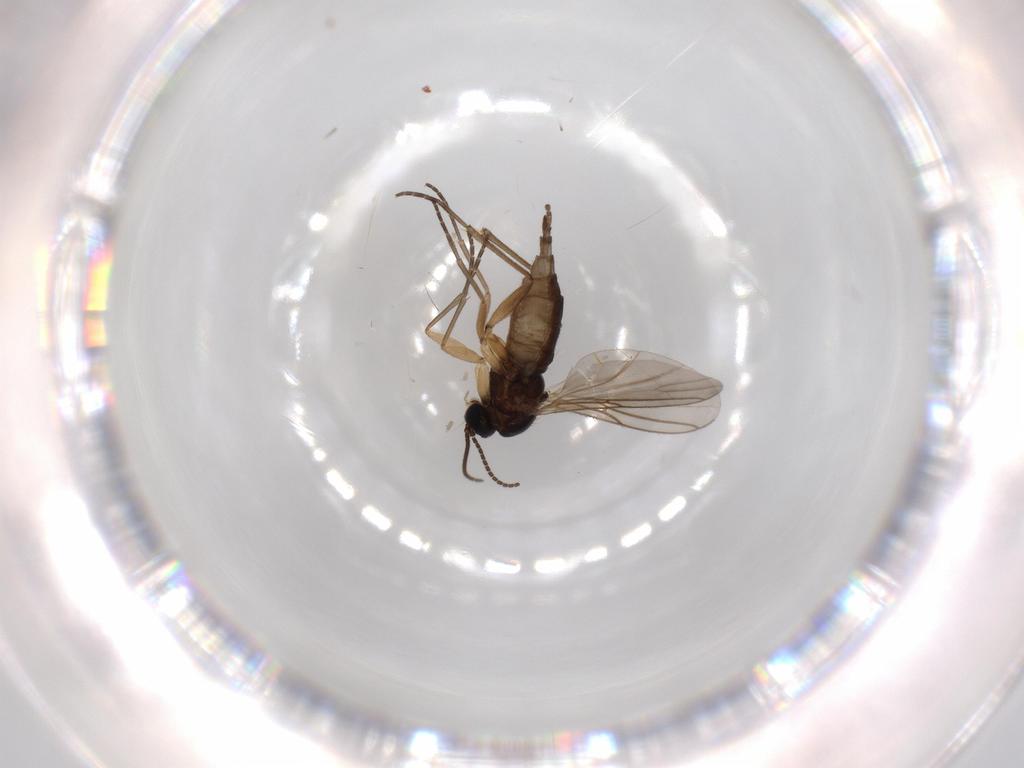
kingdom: Animalia
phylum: Arthropoda
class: Insecta
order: Diptera
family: Sciaridae
